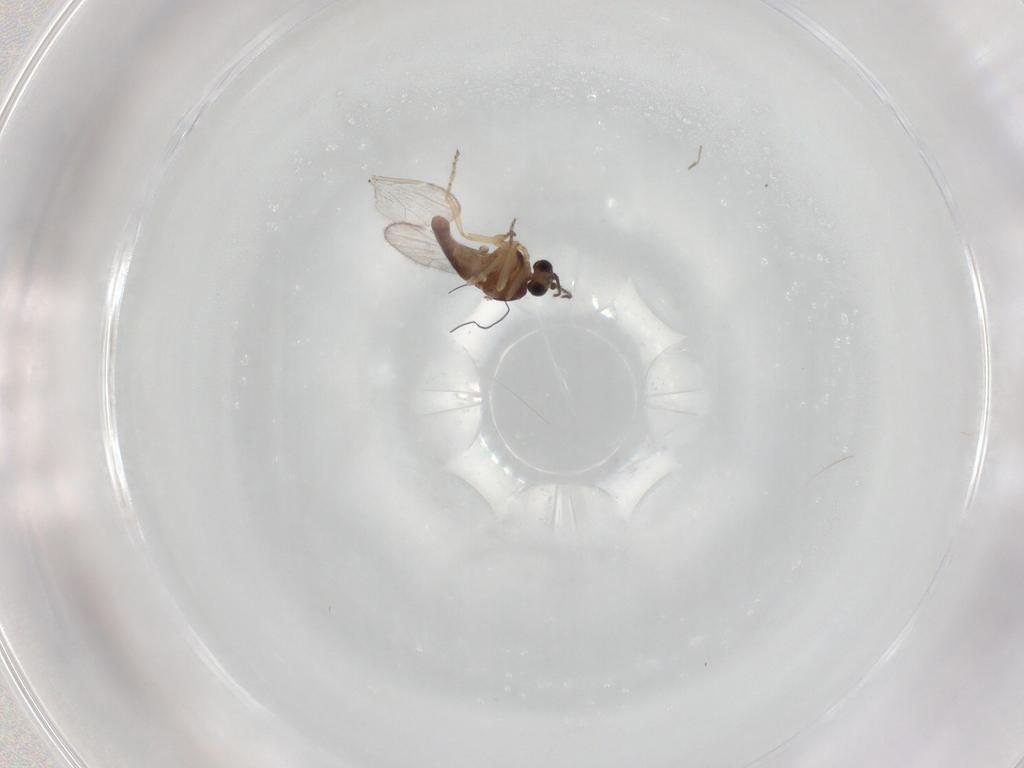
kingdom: Animalia
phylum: Arthropoda
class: Insecta
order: Diptera
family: Ceratopogonidae
